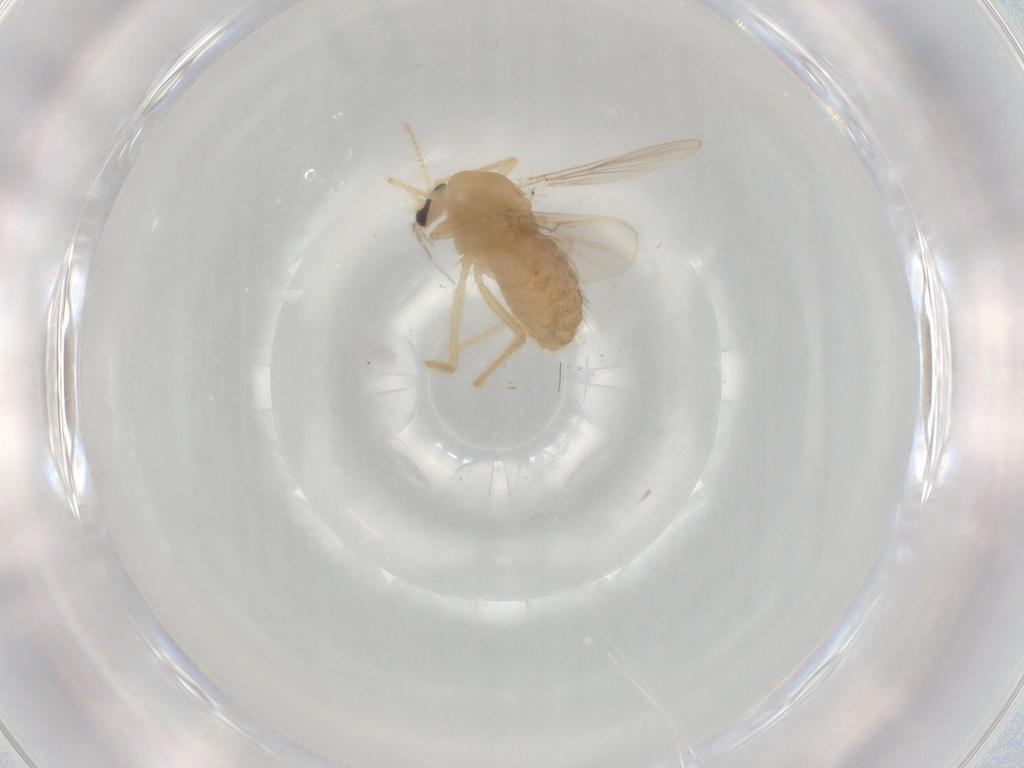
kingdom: Animalia
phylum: Arthropoda
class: Insecta
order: Diptera
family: Chironomidae
